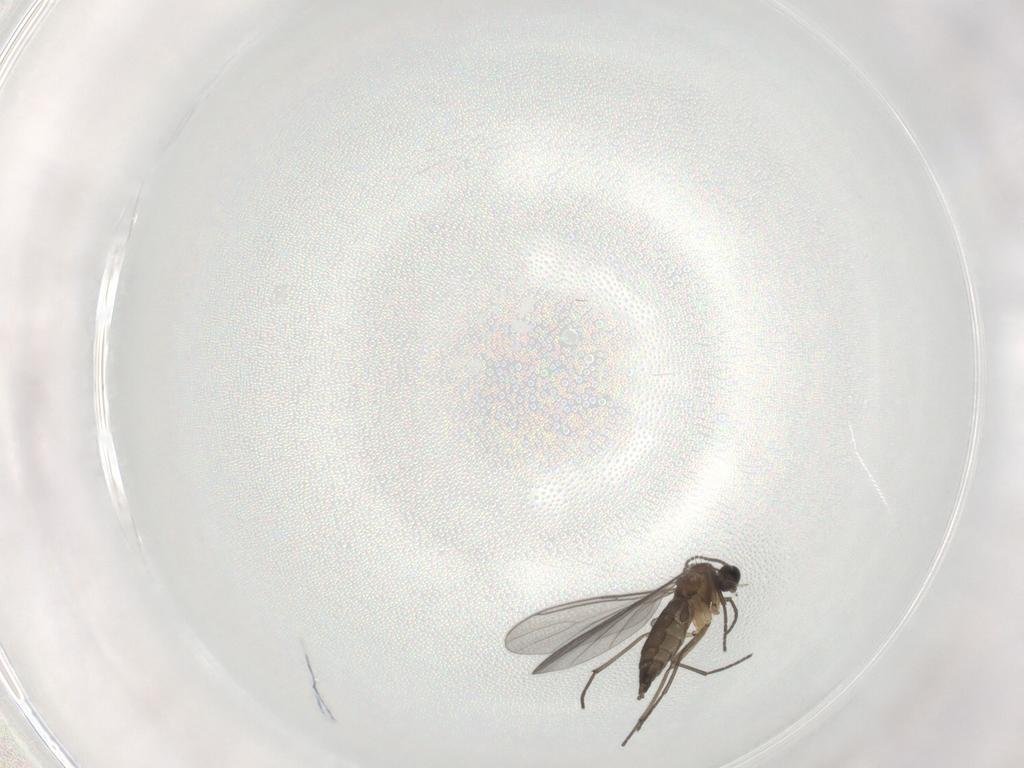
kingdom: Animalia
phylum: Arthropoda
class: Insecta
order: Diptera
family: Sciaridae
